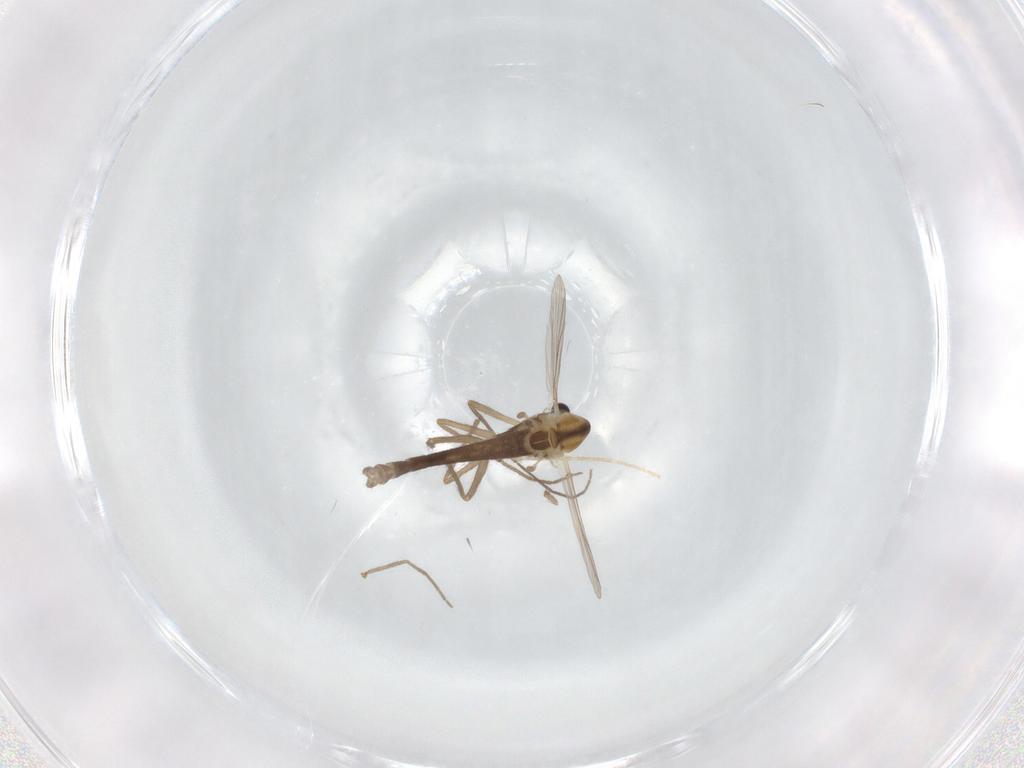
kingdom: Animalia
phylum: Arthropoda
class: Insecta
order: Diptera
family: Chironomidae
